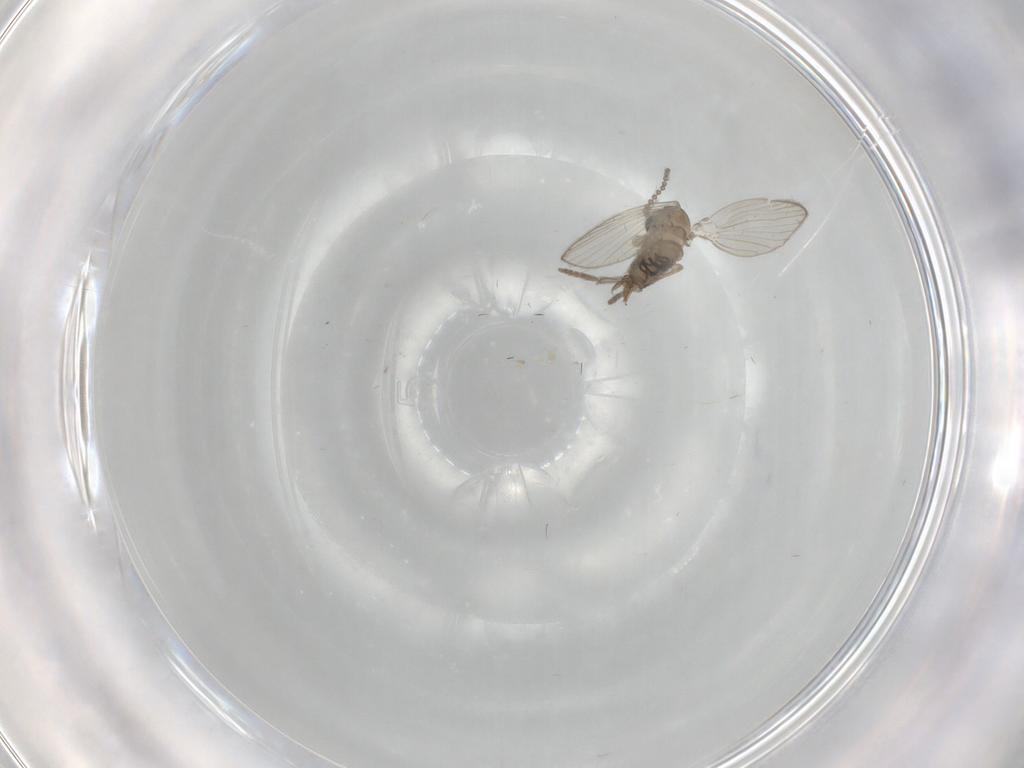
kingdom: Animalia
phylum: Arthropoda
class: Insecta
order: Diptera
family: Psychodidae
